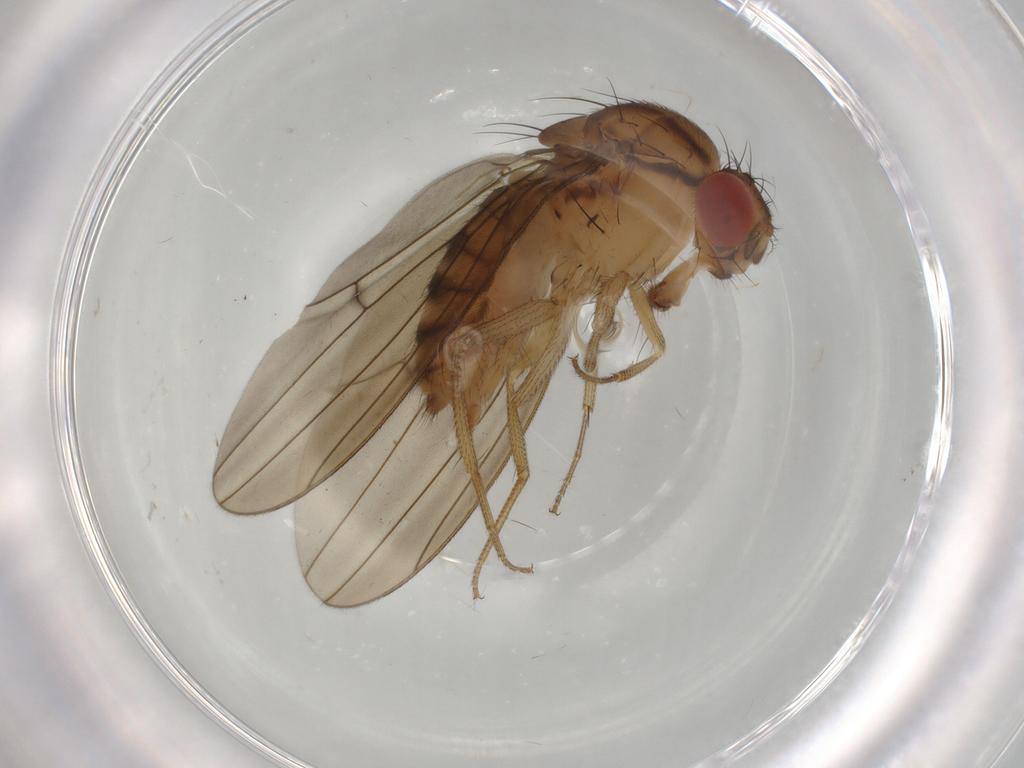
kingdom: Animalia
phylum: Arthropoda
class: Insecta
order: Diptera
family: Drosophilidae
